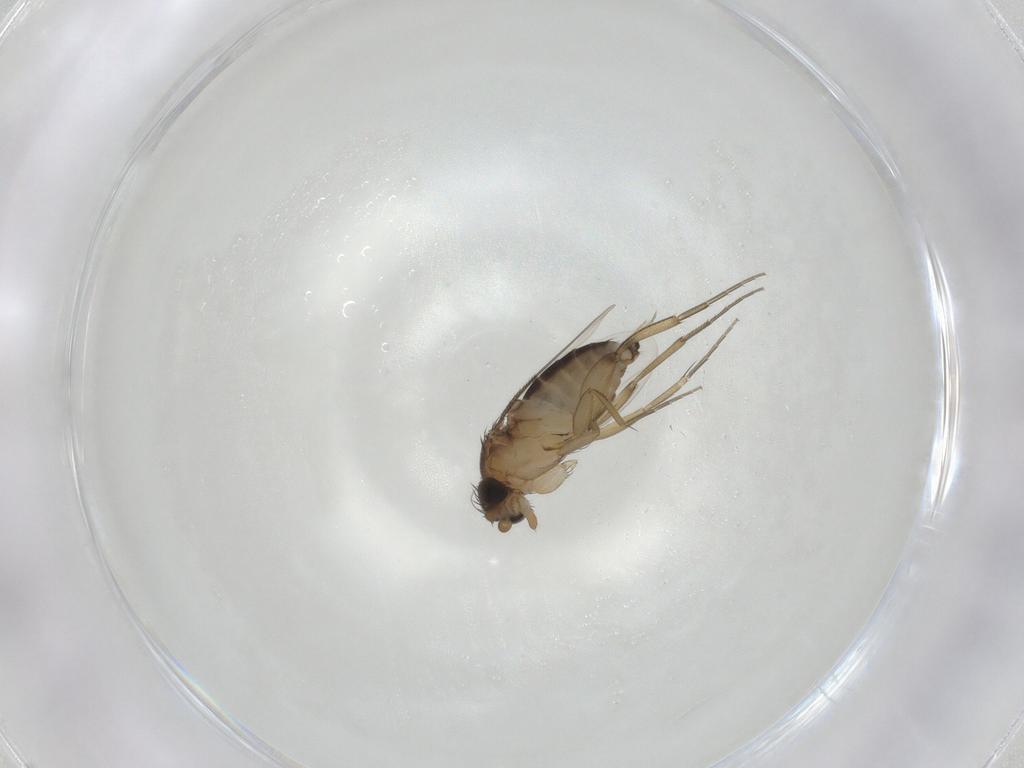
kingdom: Animalia
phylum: Arthropoda
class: Insecta
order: Diptera
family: Phoridae
